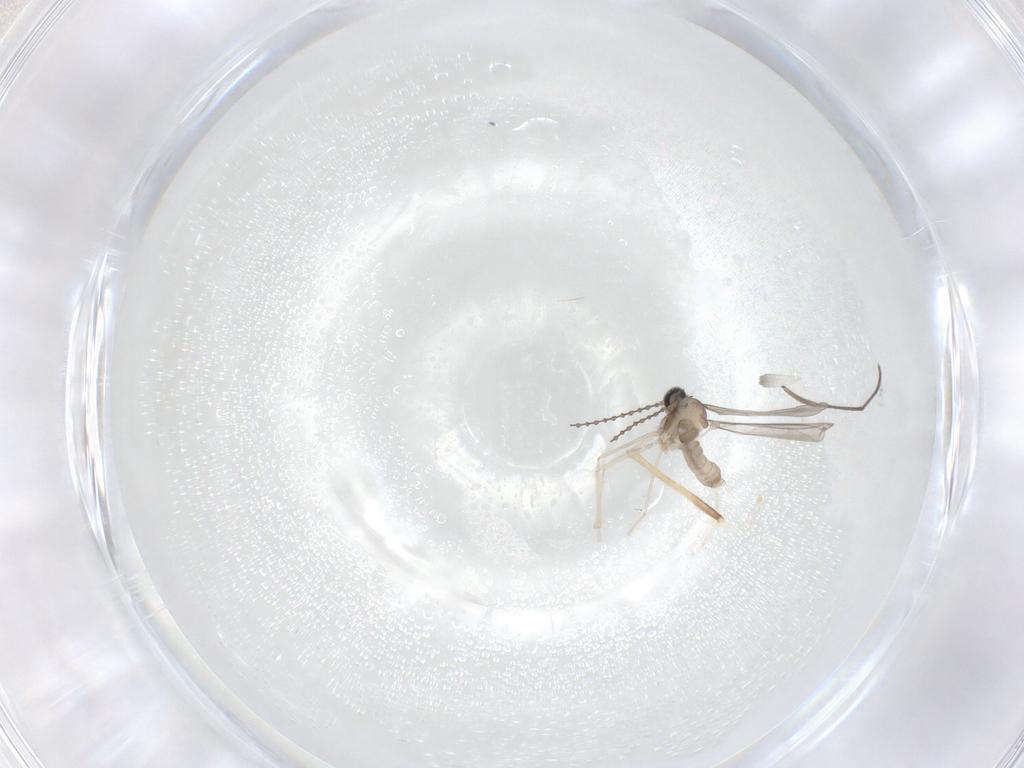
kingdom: Animalia
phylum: Arthropoda
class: Insecta
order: Diptera
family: Chironomidae
